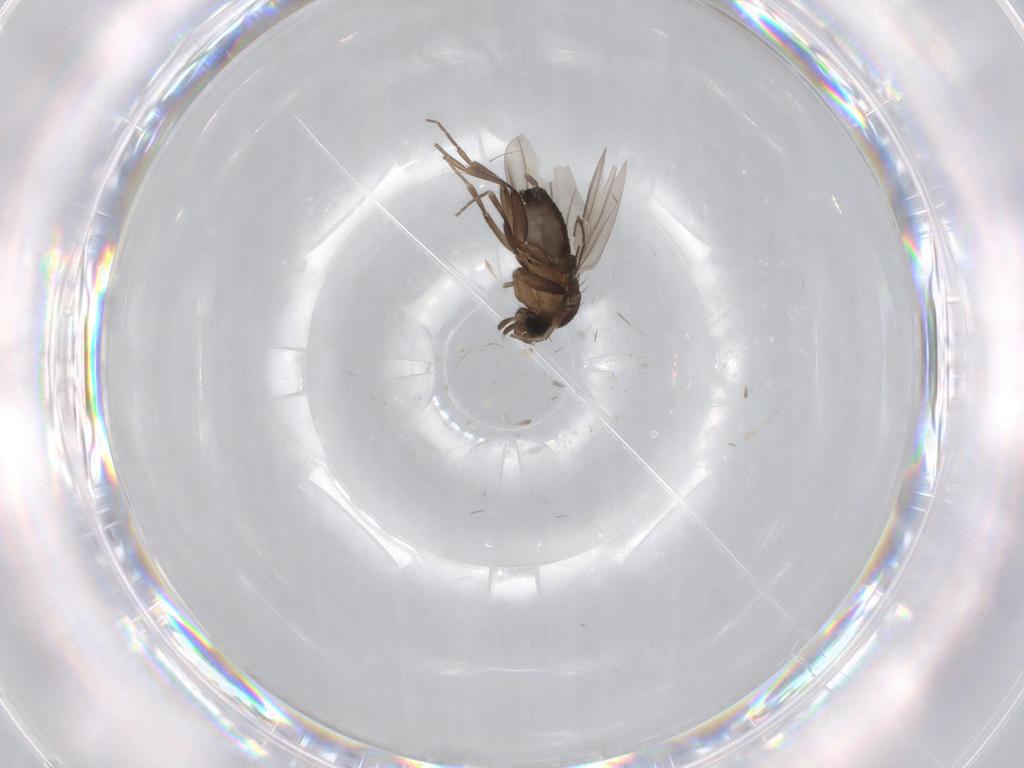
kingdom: Animalia
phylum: Arthropoda
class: Insecta
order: Diptera
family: Phoridae
